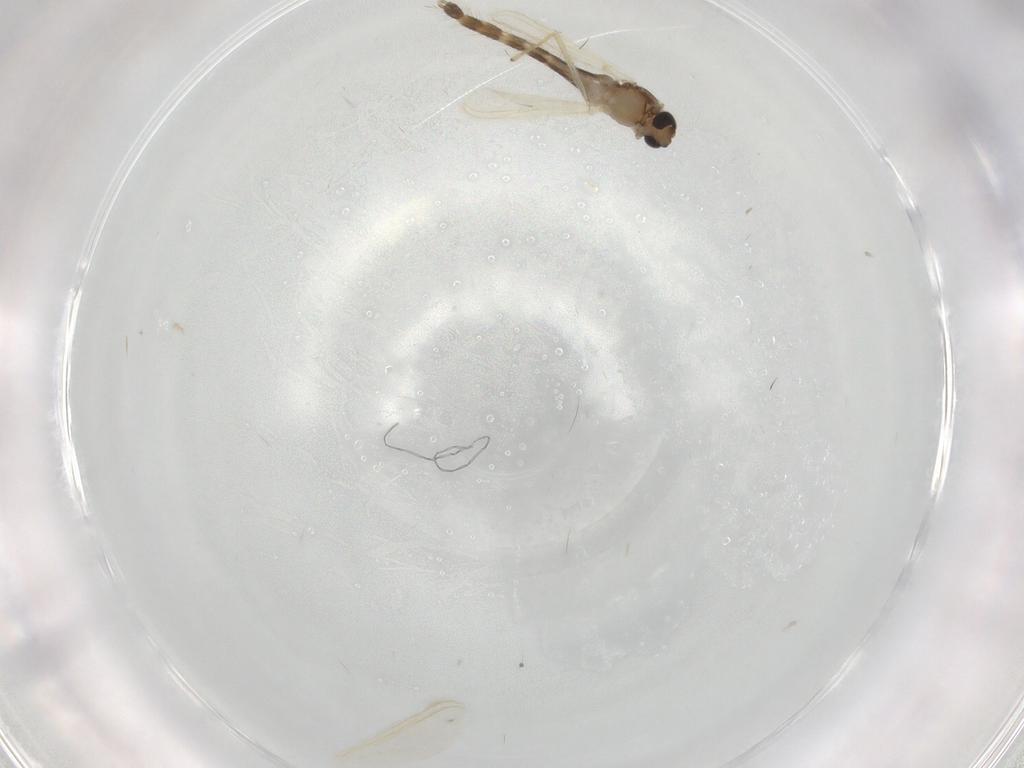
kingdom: Animalia
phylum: Arthropoda
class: Insecta
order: Diptera
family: Chironomidae
